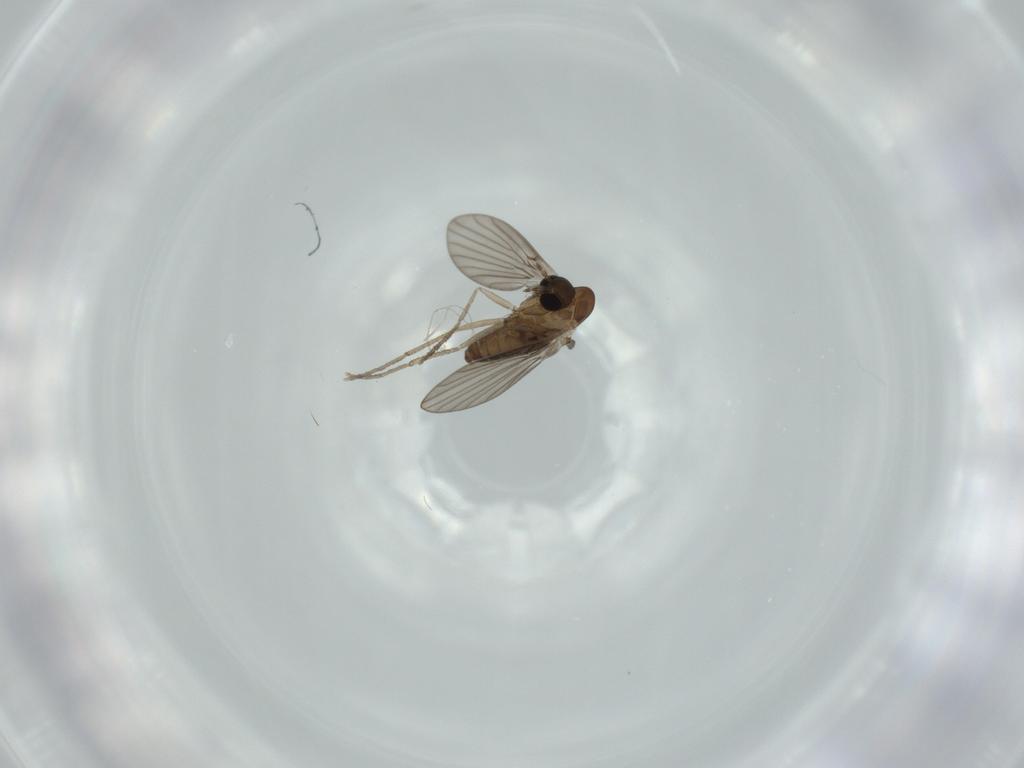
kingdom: Animalia
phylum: Arthropoda
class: Insecta
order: Diptera
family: Psychodidae
